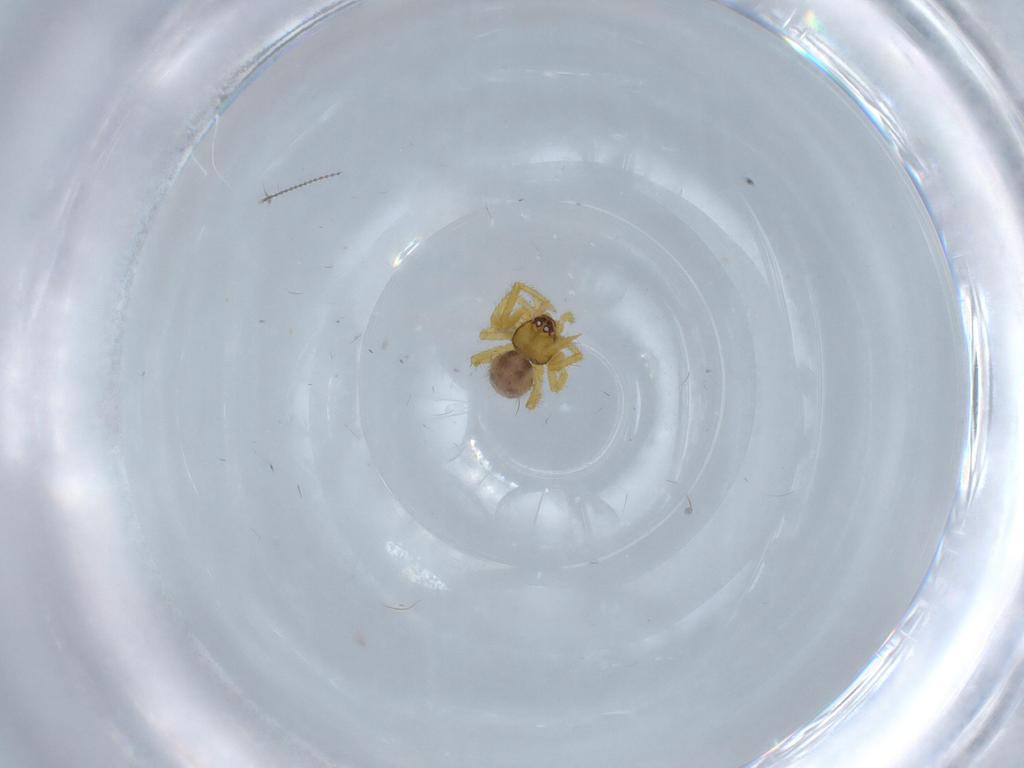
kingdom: Animalia
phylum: Arthropoda
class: Arachnida
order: Araneae
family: Theridiidae
